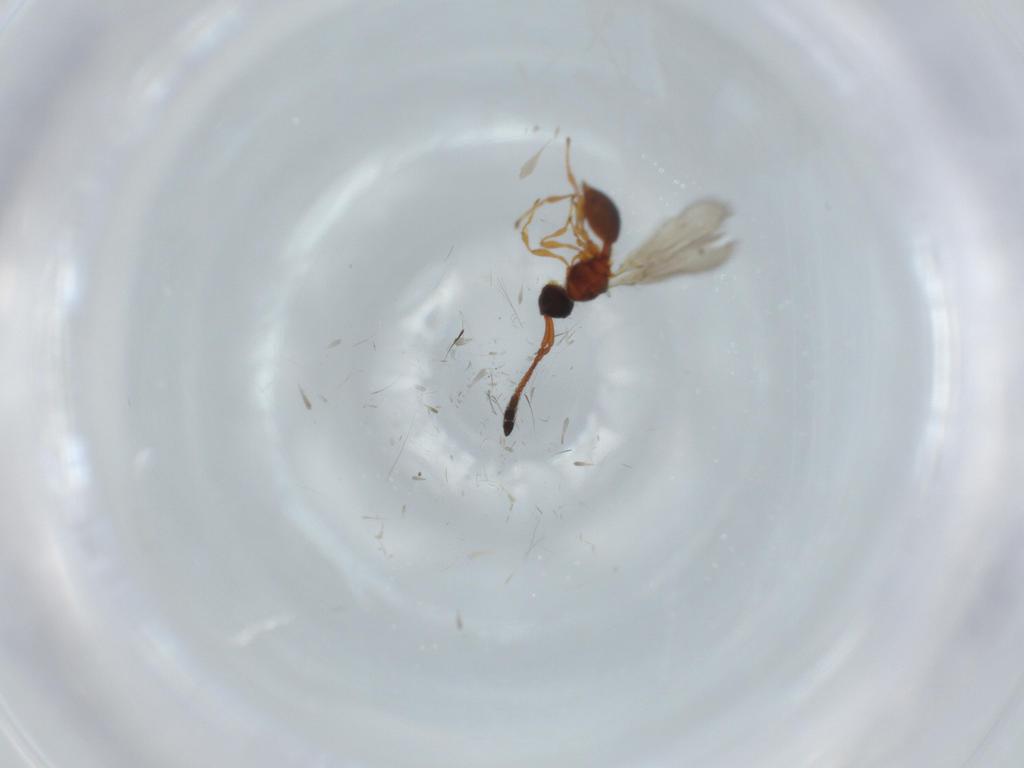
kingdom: Animalia
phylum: Arthropoda
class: Insecta
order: Hymenoptera
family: Diapriidae
